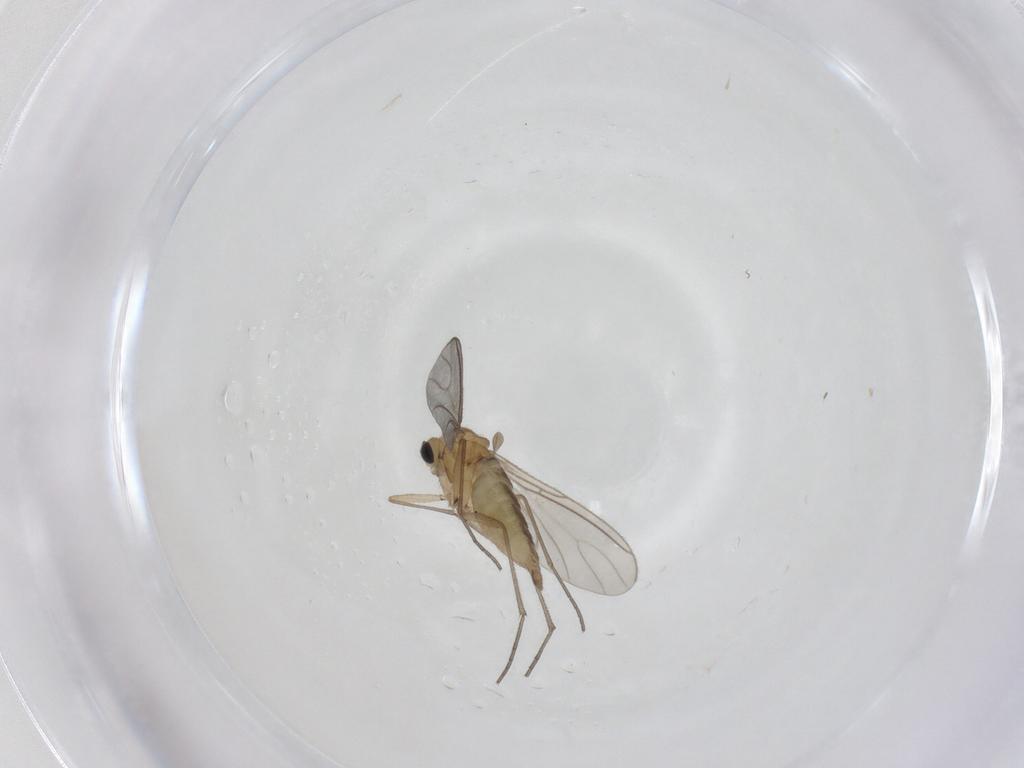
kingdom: Animalia
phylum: Arthropoda
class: Insecta
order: Diptera
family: Sciaridae
